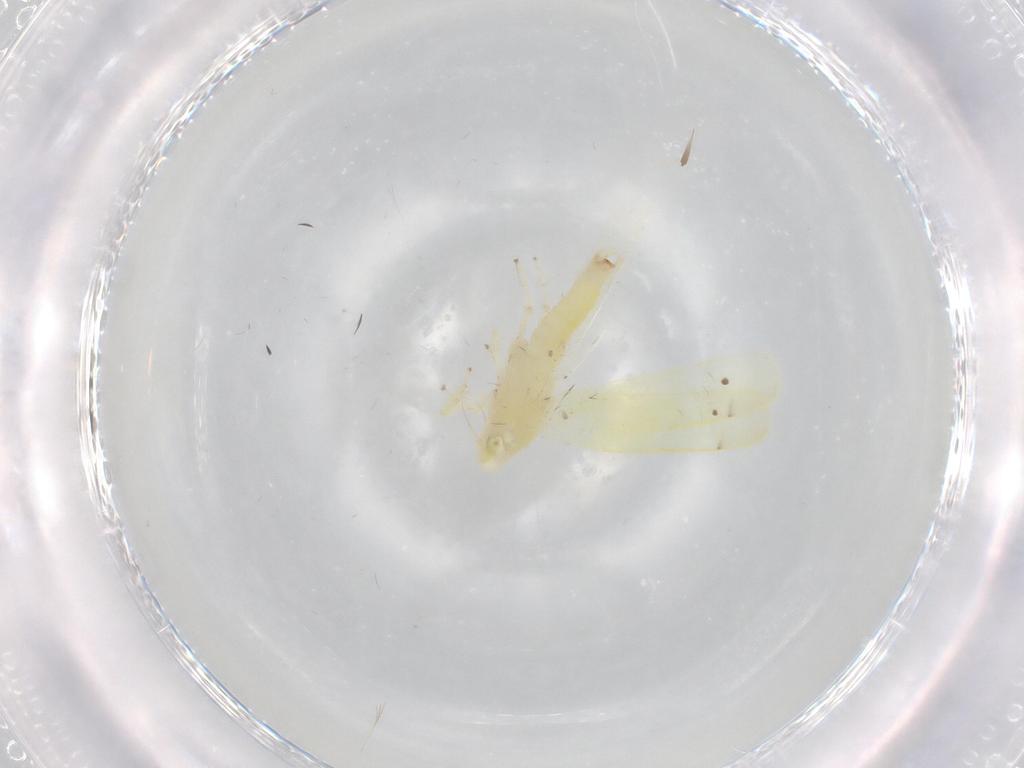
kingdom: Animalia
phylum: Arthropoda
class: Insecta
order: Hemiptera
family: Cicadellidae
